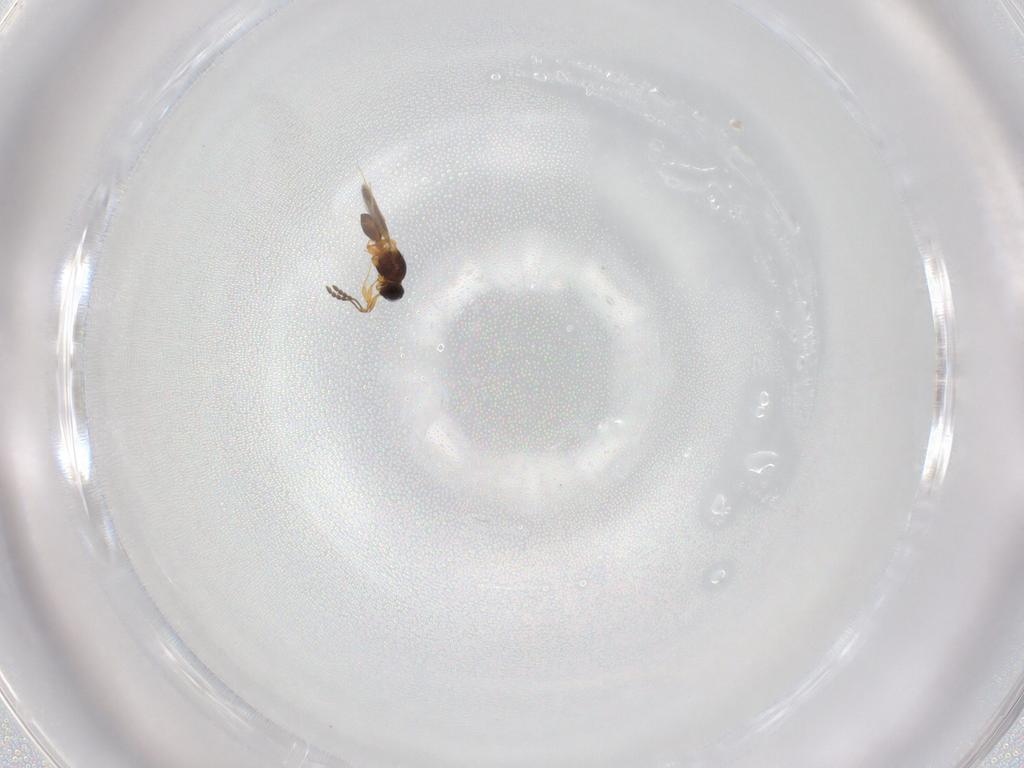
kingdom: Animalia
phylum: Arthropoda
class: Insecta
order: Hymenoptera
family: Platygastridae
